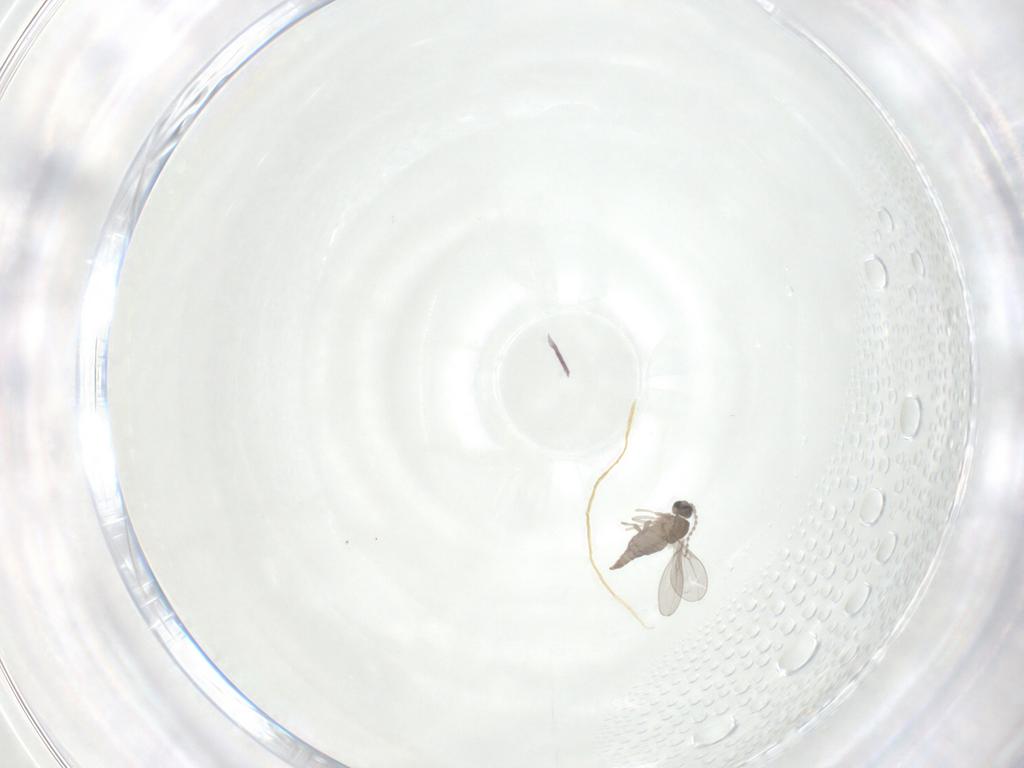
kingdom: Animalia
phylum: Arthropoda
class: Insecta
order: Diptera
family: Cecidomyiidae
